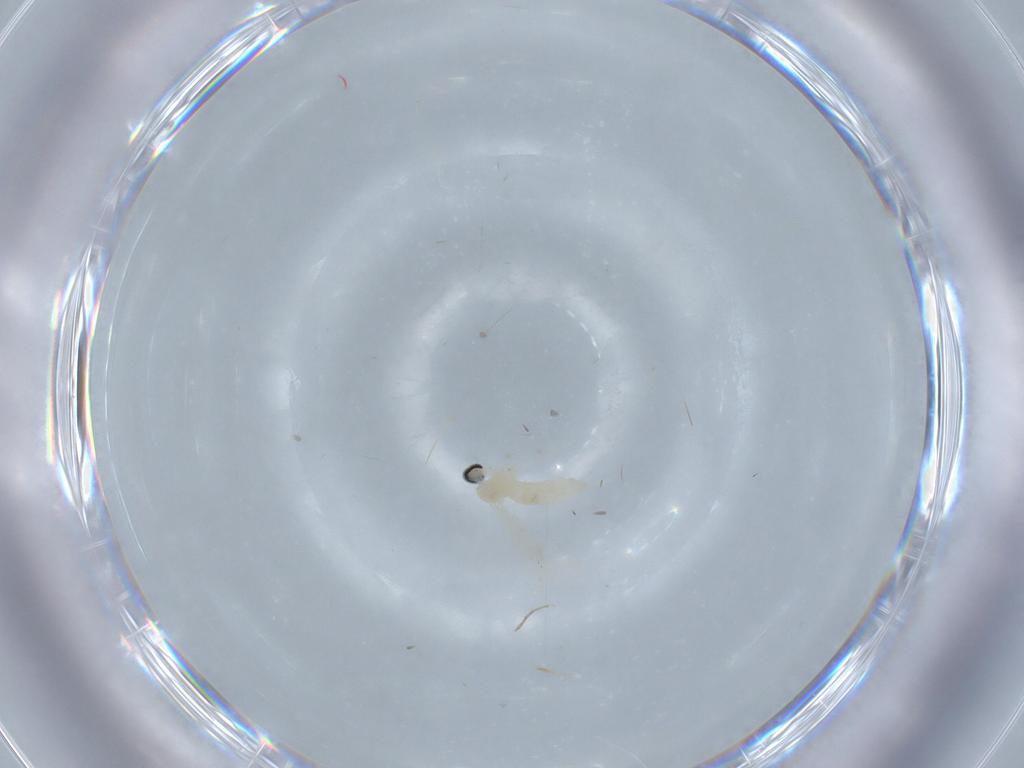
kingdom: Animalia
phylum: Arthropoda
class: Insecta
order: Diptera
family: Cecidomyiidae
